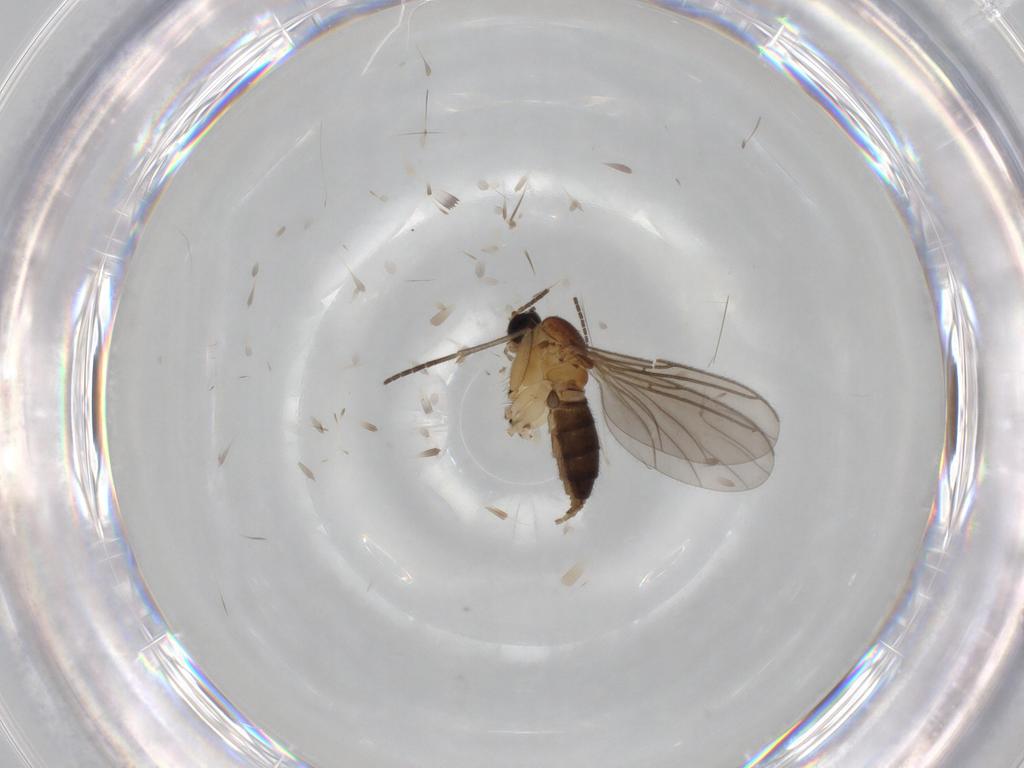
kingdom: Animalia
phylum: Arthropoda
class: Insecta
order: Diptera
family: Sciaridae
